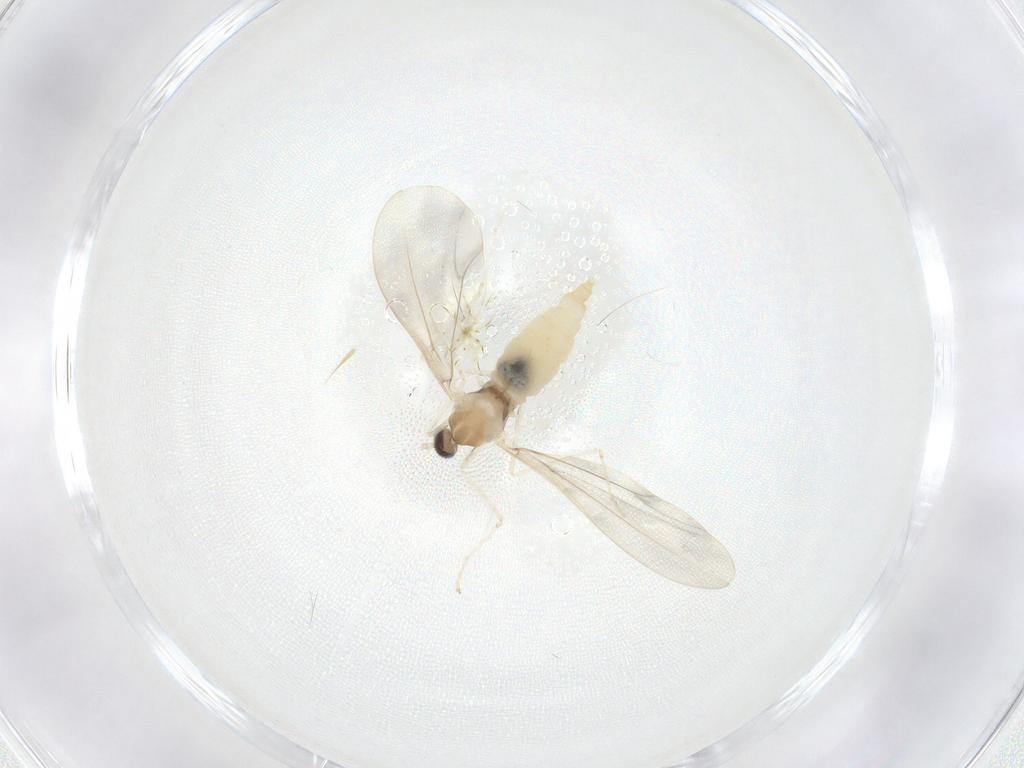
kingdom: Animalia
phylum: Arthropoda
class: Insecta
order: Diptera
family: Cecidomyiidae
